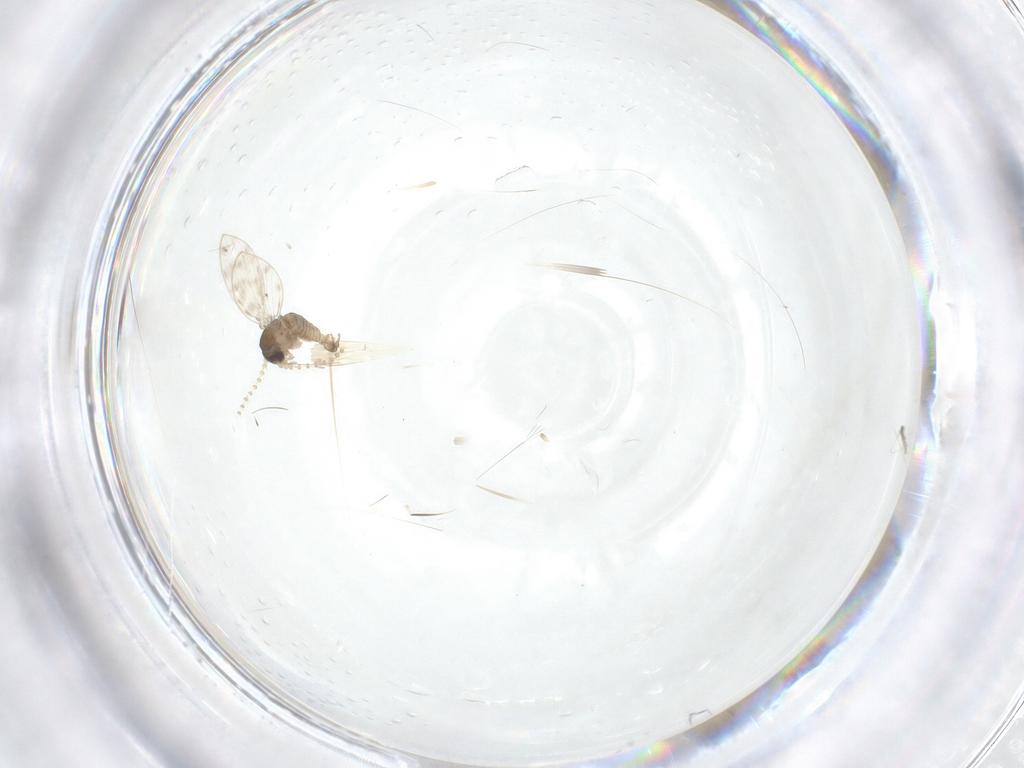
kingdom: Animalia
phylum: Arthropoda
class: Insecta
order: Diptera
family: Psychodidae
